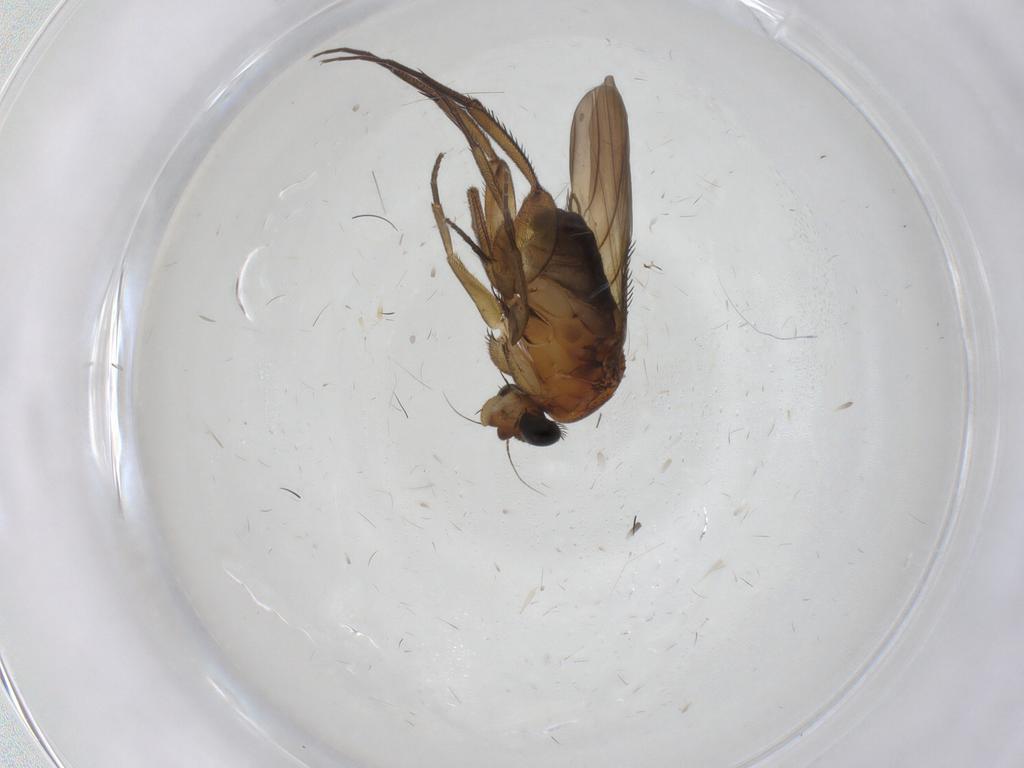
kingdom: Animalia
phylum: Arthropoda
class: Insecta
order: Diptera
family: Phoridae
